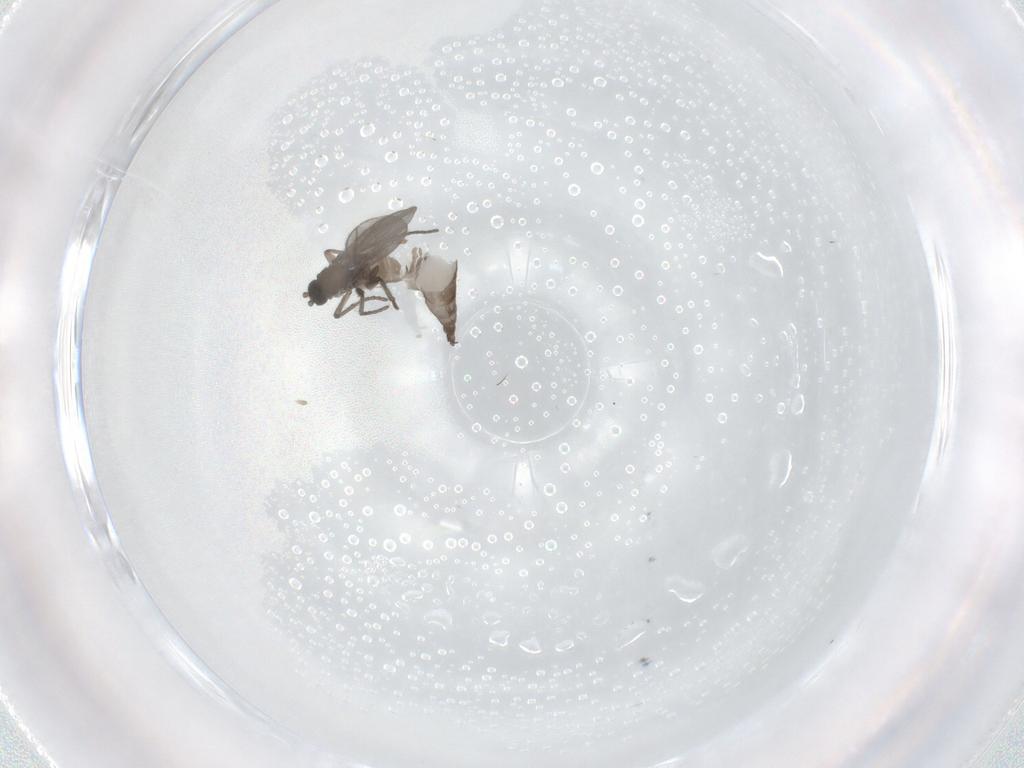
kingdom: Animalia
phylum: Arthropoda
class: Insecta
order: Diptera
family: Sciaridae
